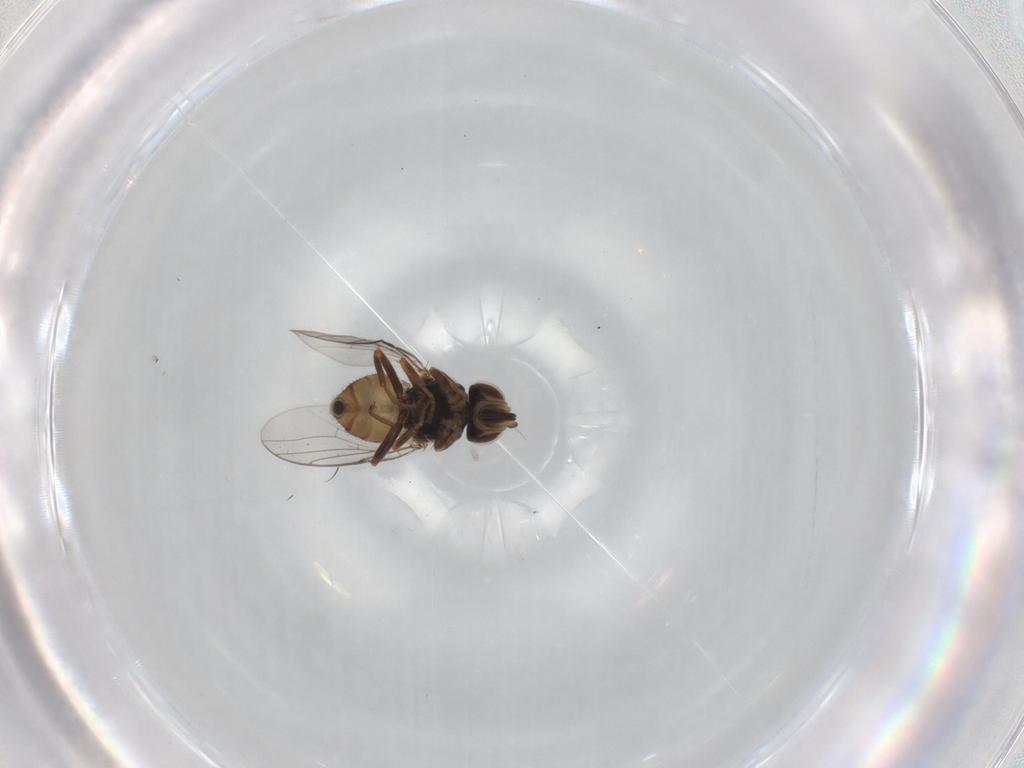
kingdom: Animalia
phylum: Arthropoda
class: Insecta
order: Diptera
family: Chloropidae
